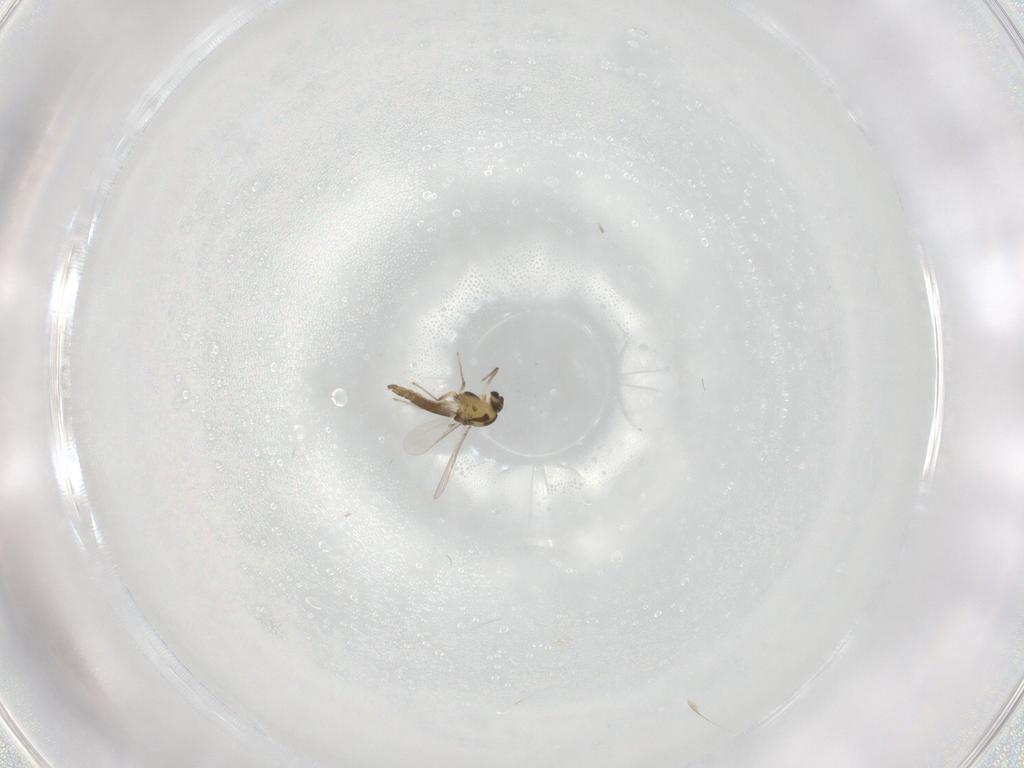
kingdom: Animalia
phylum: Arthropoda
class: Insecta
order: Diptera
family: Chironomidae
